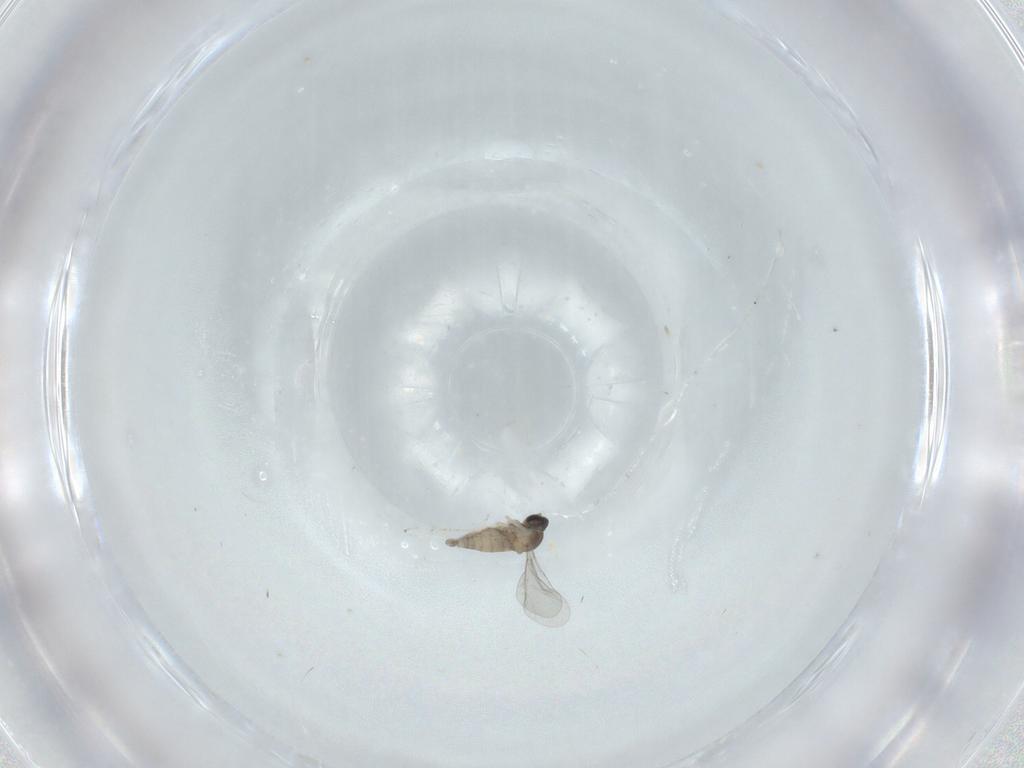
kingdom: Animalia
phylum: Arthropoda
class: Insecta
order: Diptera
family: Cecidomyiidae
